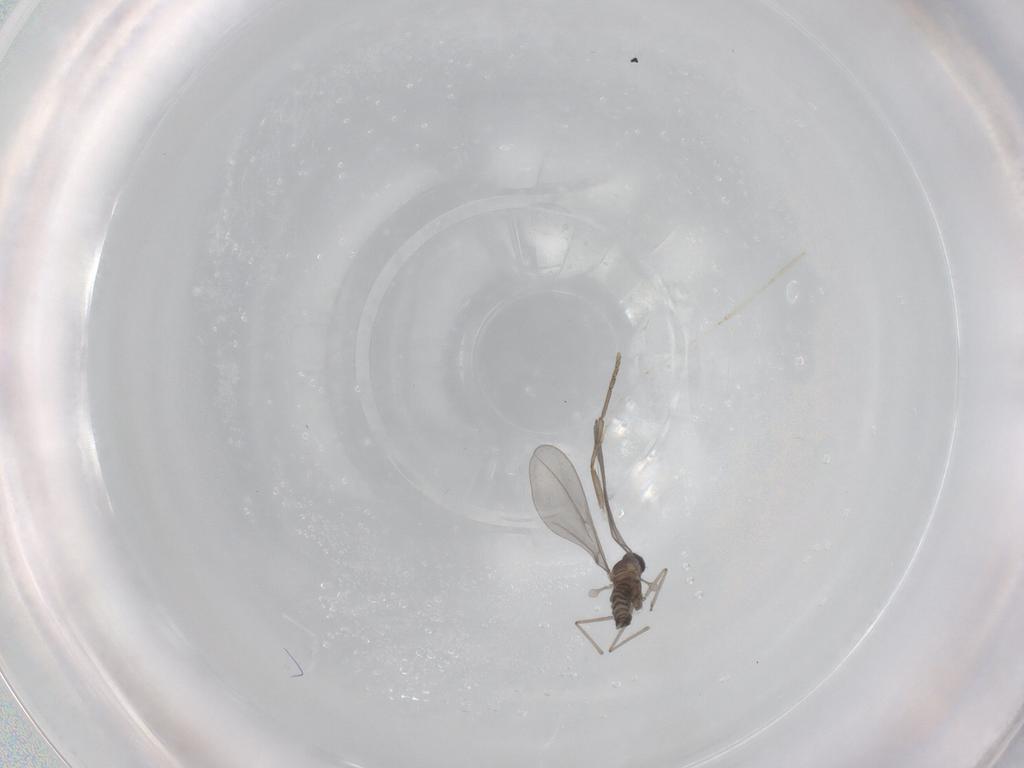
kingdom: Animalia
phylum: Arthropoda
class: Insecta
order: Diptera
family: Cecidomyiidae
